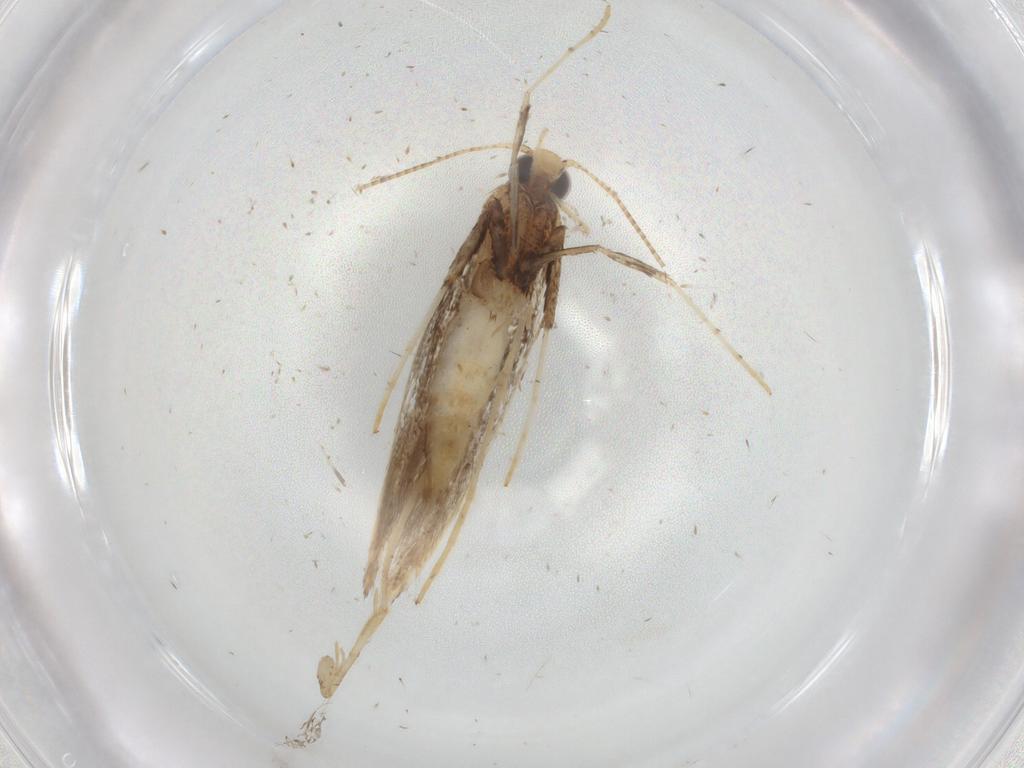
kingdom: Animalia
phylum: Arthropoda
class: Insecta
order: Lepidoptera
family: Gracillariidae
